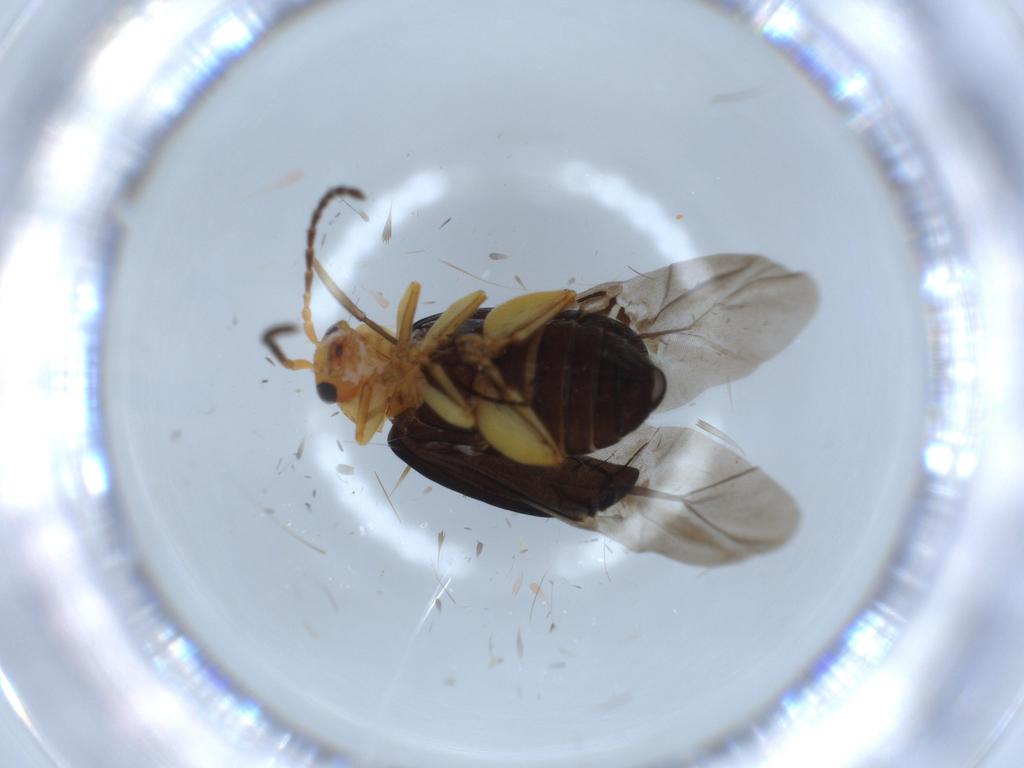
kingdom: Animalia
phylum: Arthropoda
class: Insecta
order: Coleoptera
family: Chrysomelidae
